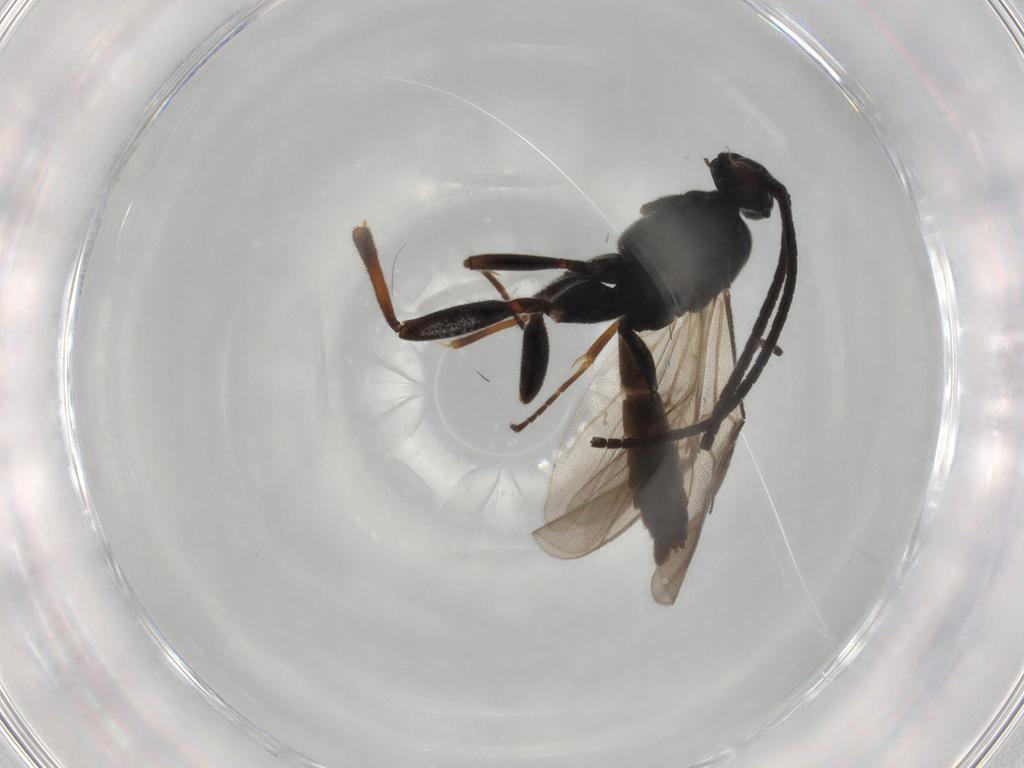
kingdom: Animalia
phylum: Arthropoda
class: Insecta
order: Hymenoptera
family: Braconidae
